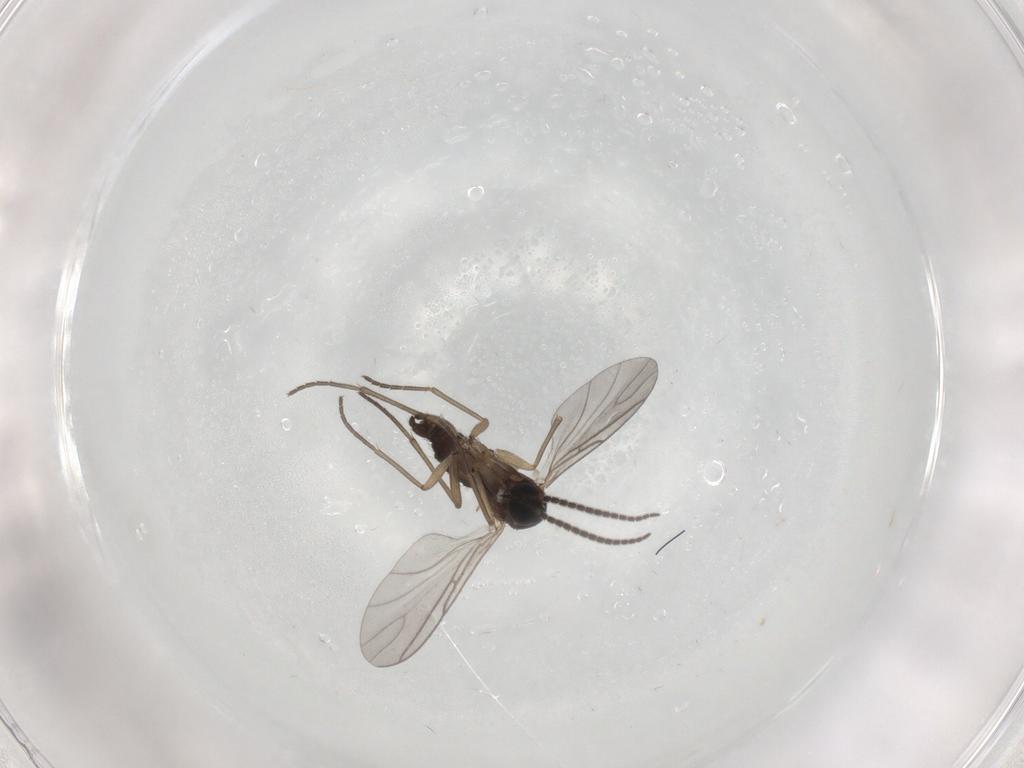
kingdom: Animalia
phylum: Arthropoda
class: Insecta
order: Diptera
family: Sciaridae
